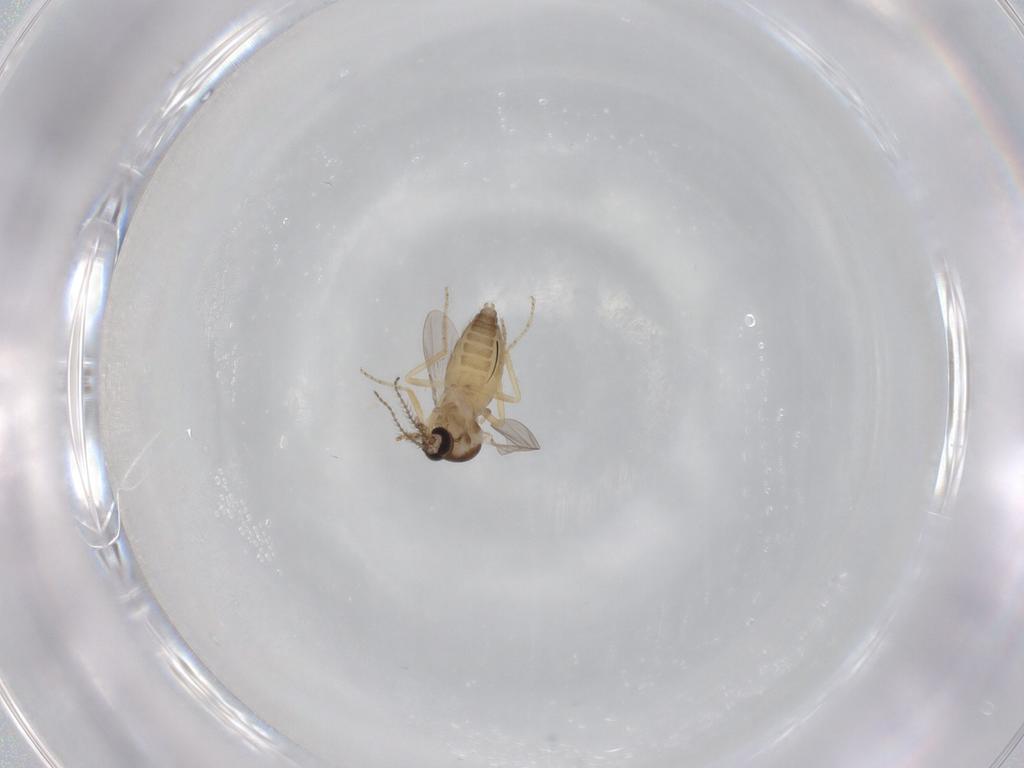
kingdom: Animalia
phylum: Arthropoda
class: Insecta
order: Diptera
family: Ceratopogonidae
